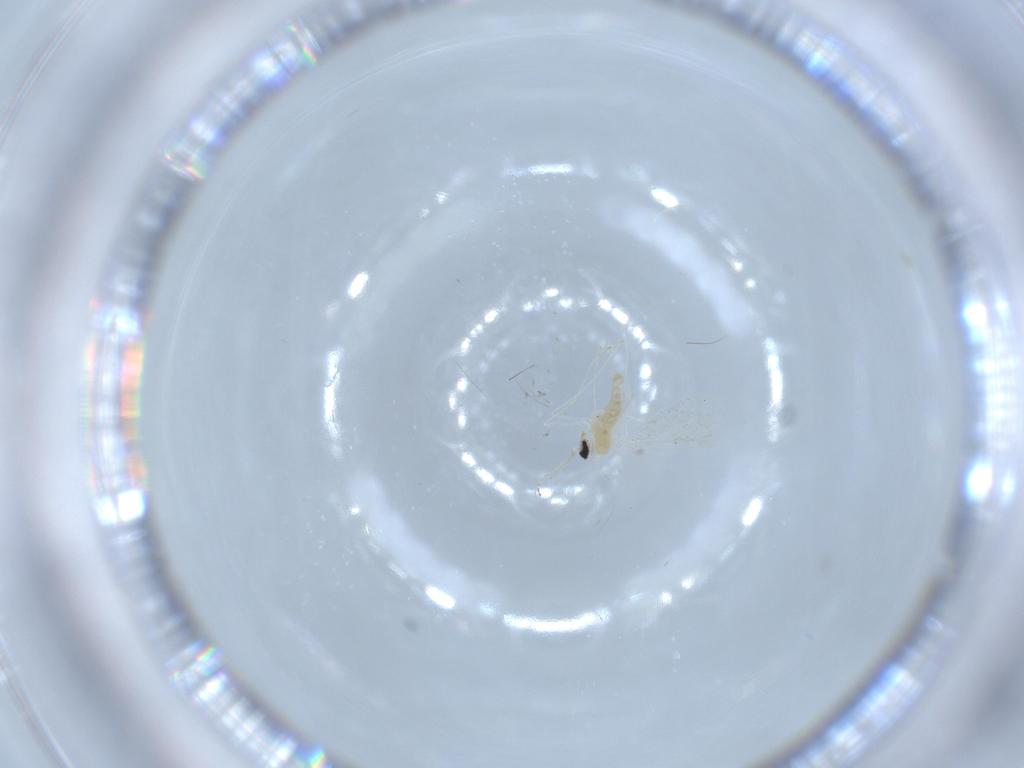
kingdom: Animalia
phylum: Arthropoda
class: Insecta
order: Diptera
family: Cecidomyiidae
